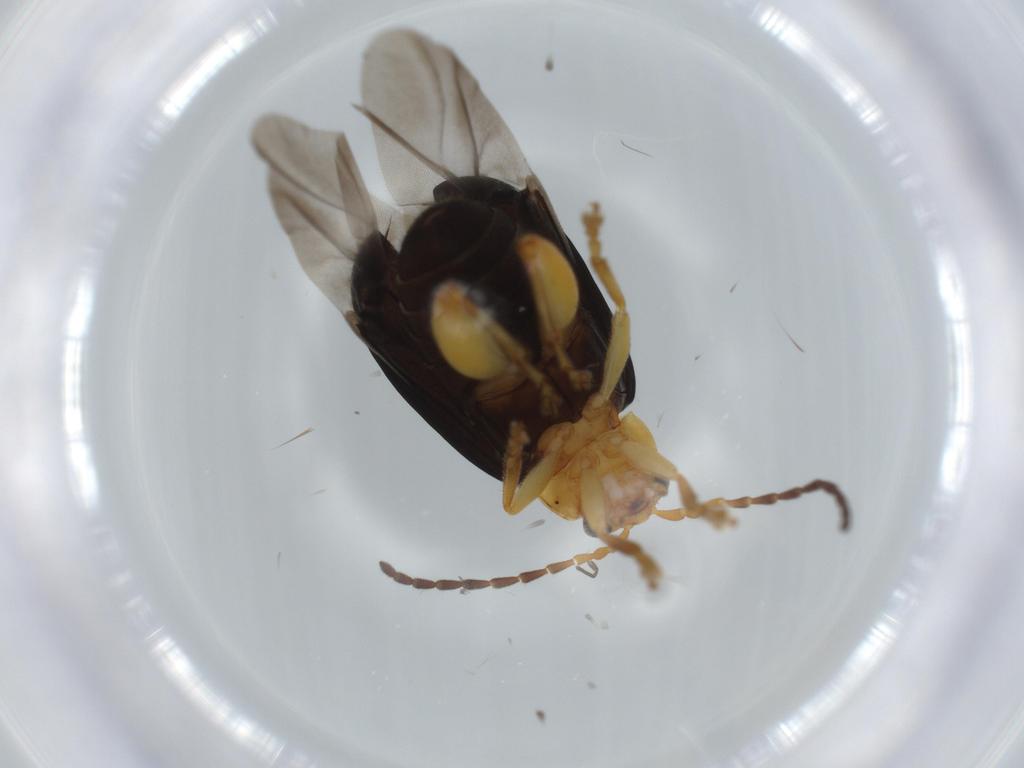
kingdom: Animalia
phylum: Arthropoda
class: Insecta
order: Coleoptera
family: Chrysomelidae
